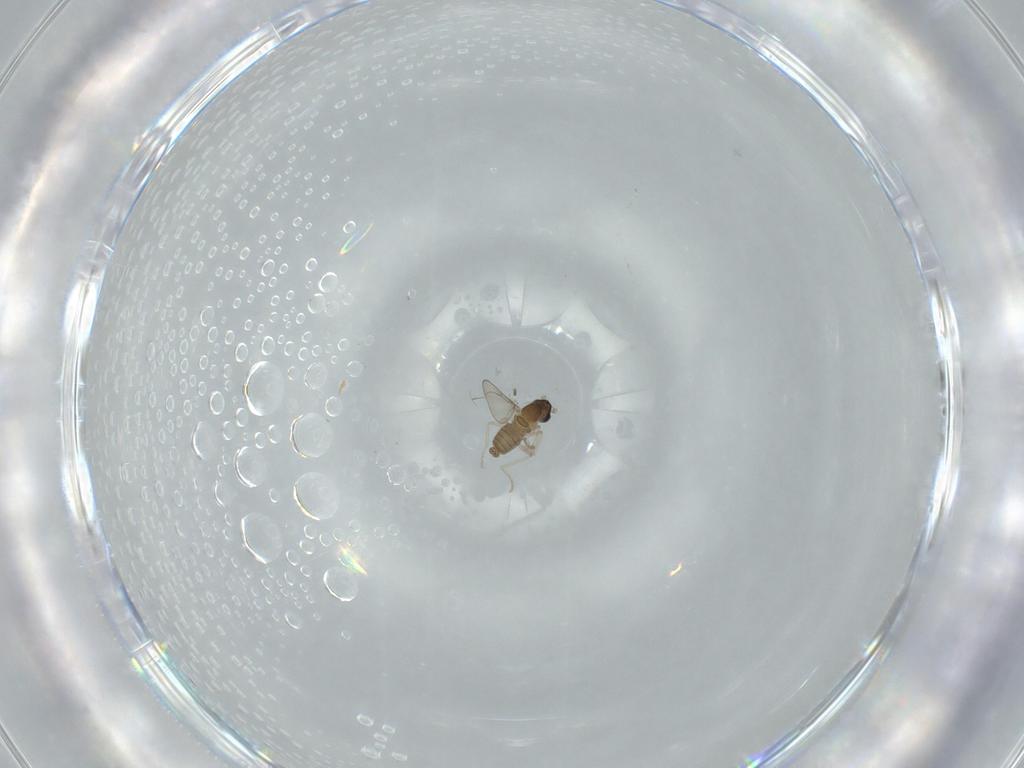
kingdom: Animalia
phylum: Arthropoda
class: Insecta
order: Diptera
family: Cecidomyiidae
